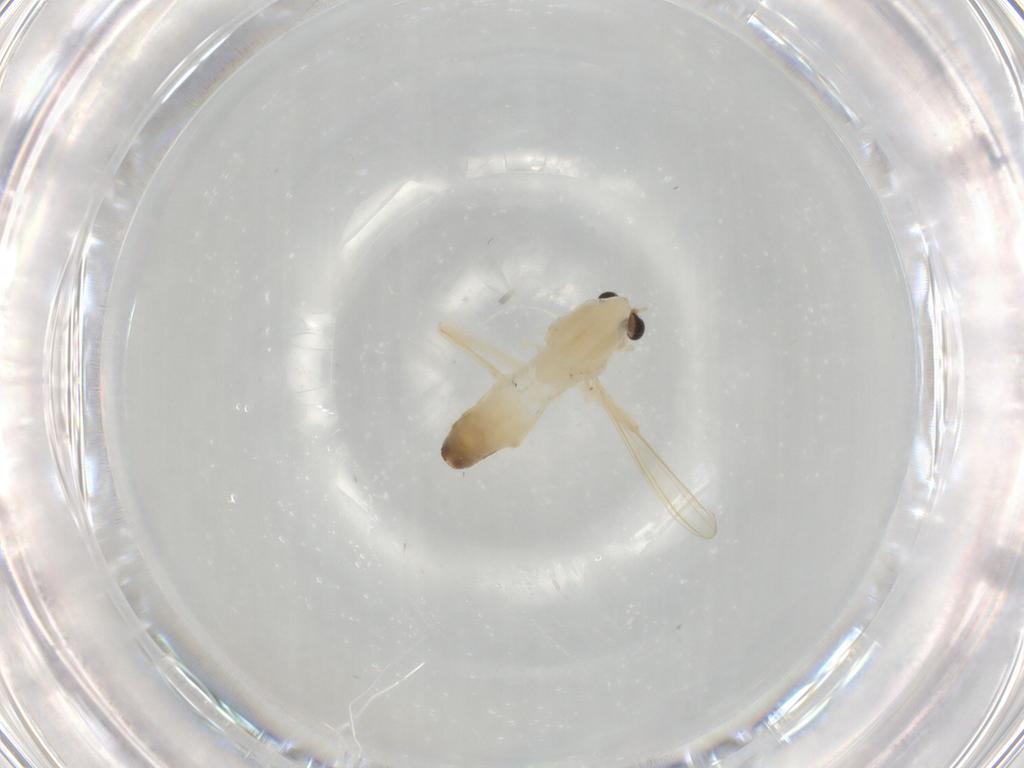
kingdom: Animalia
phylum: Arthropoda
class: Insecta
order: Diptera
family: Chironomidae
